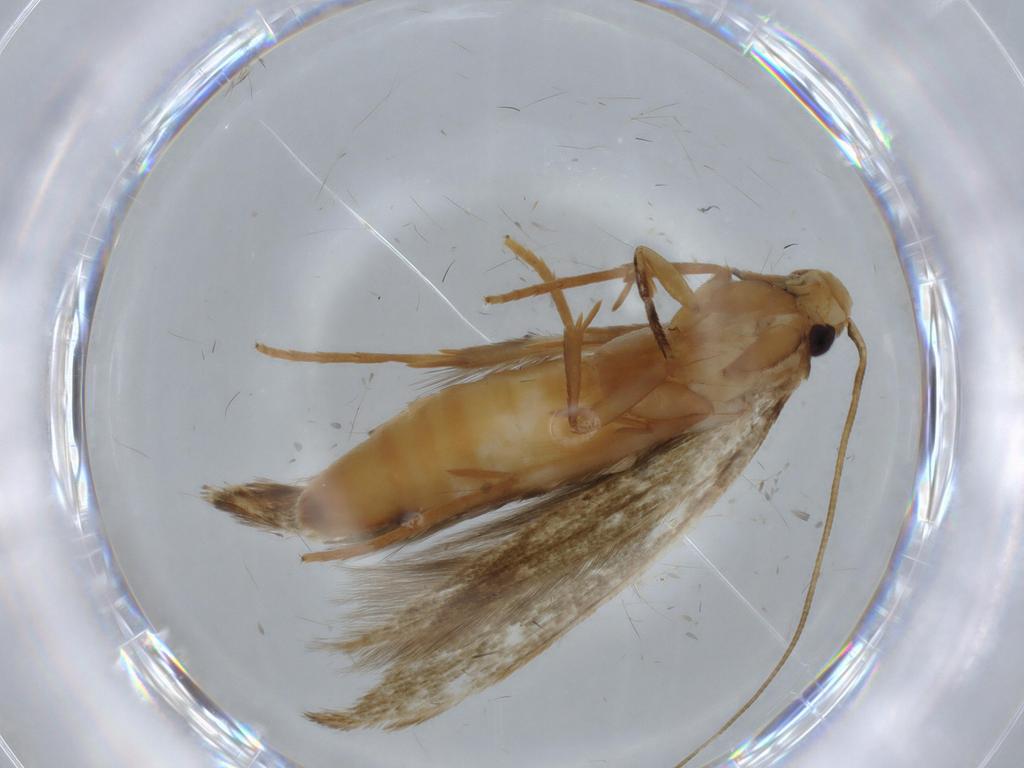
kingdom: Animalia
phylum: Arthropoda
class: Insecta
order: Lepidoptera
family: Tineidae
